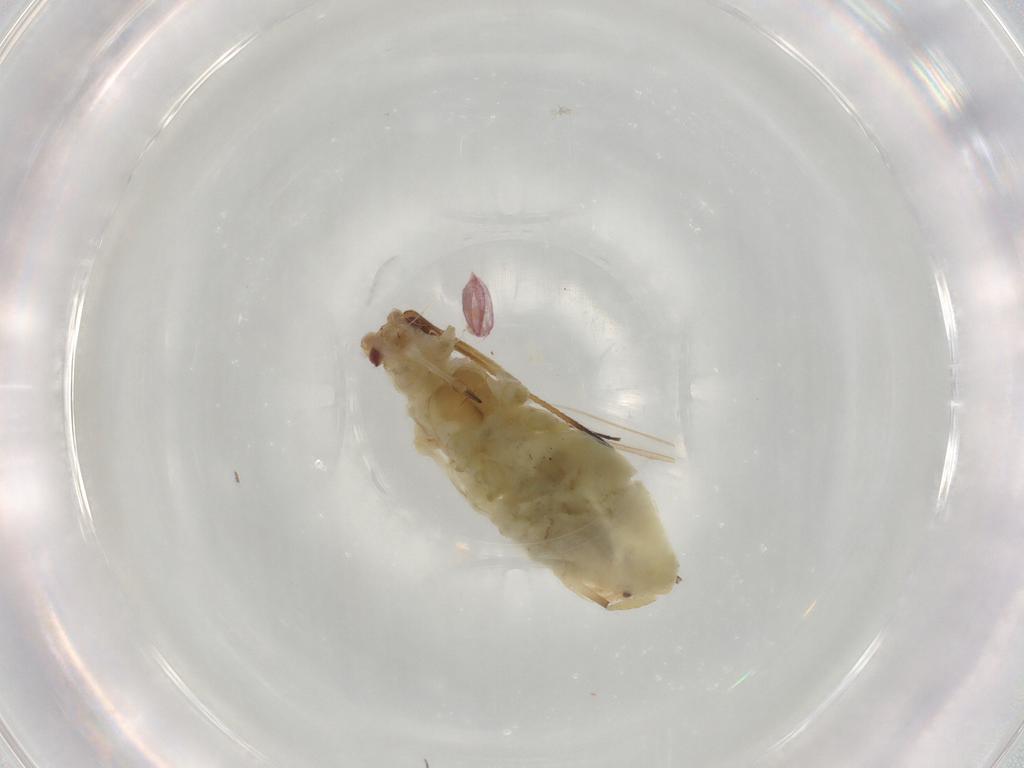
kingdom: Animalia
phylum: Arthropoda
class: Insecta
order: Hemiptera
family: Aphididae
